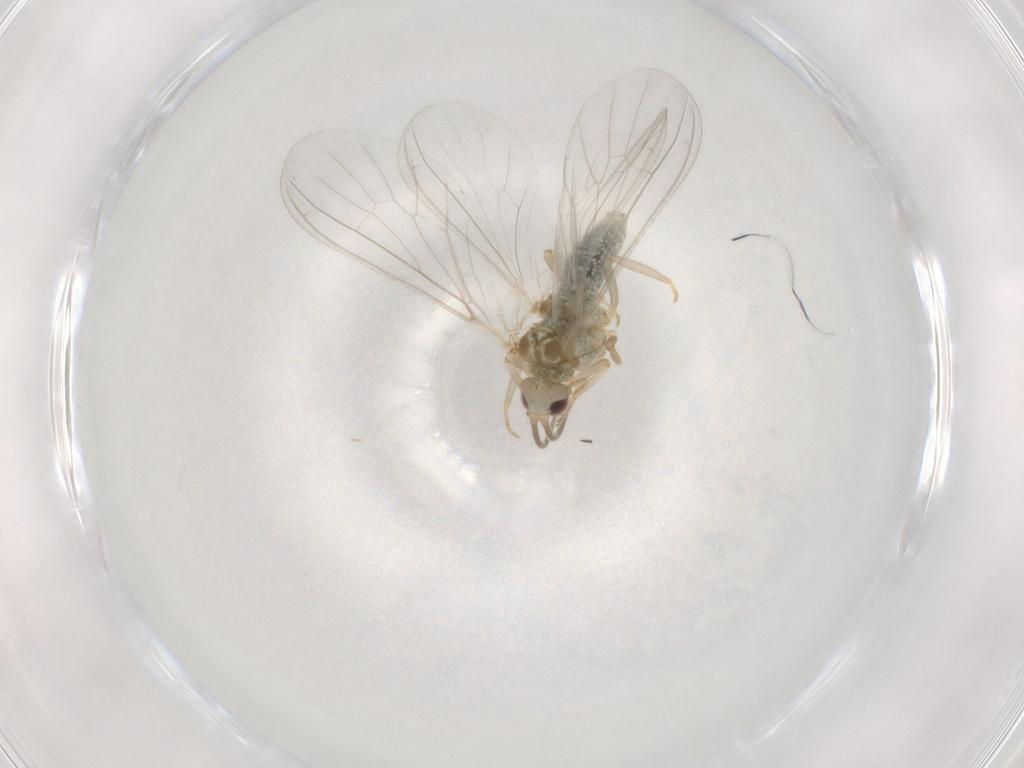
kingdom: Animalia
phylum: Arthropoda
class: Insecta
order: Neuroptera
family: Coniopterygidae
